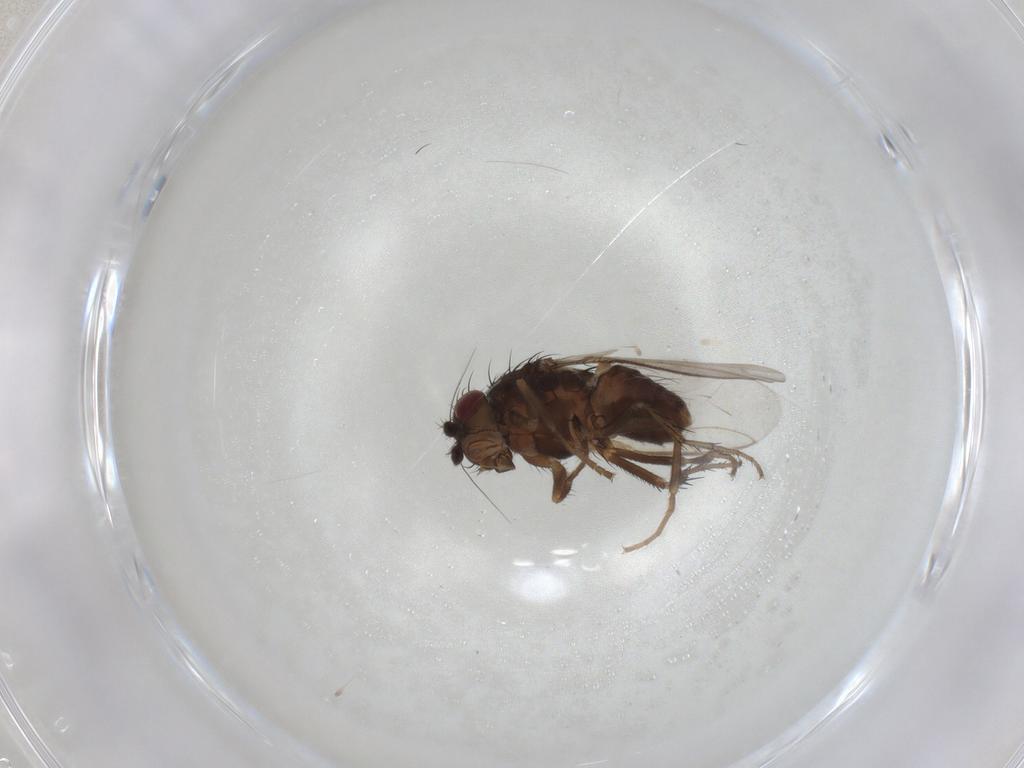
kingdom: Animalia
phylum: Arthropoda
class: Insecta
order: Diptera
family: Sphaeroceridae
